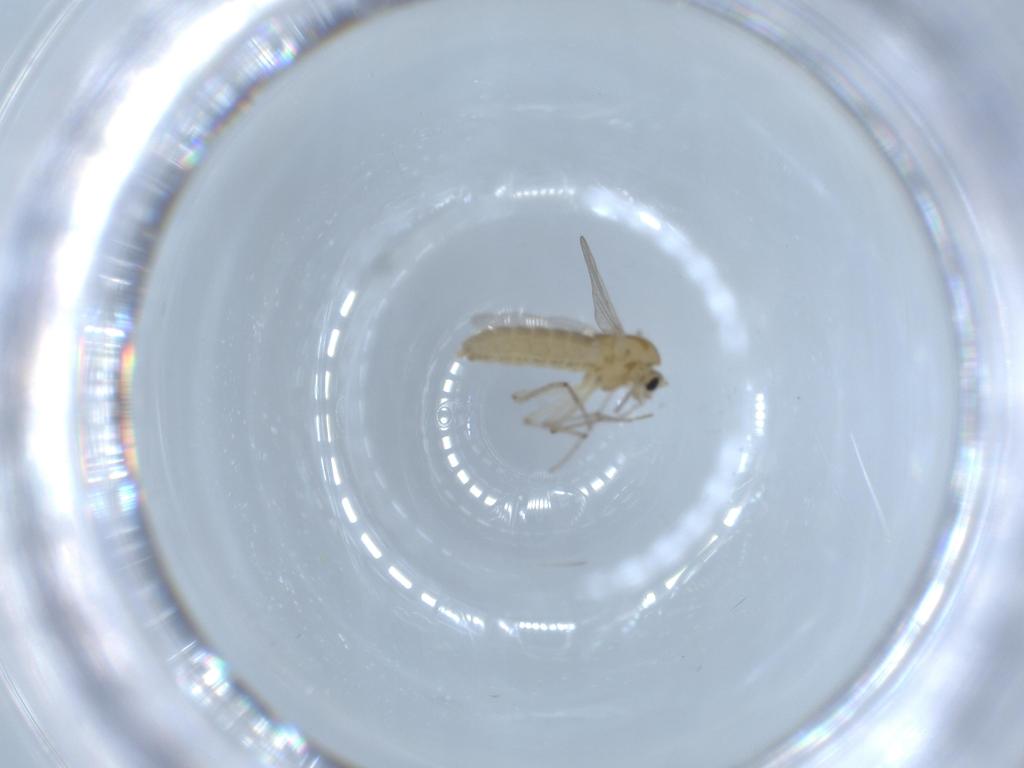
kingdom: Animalia
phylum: Arthropoda
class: Insecta
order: Diptera
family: Chironomidae
